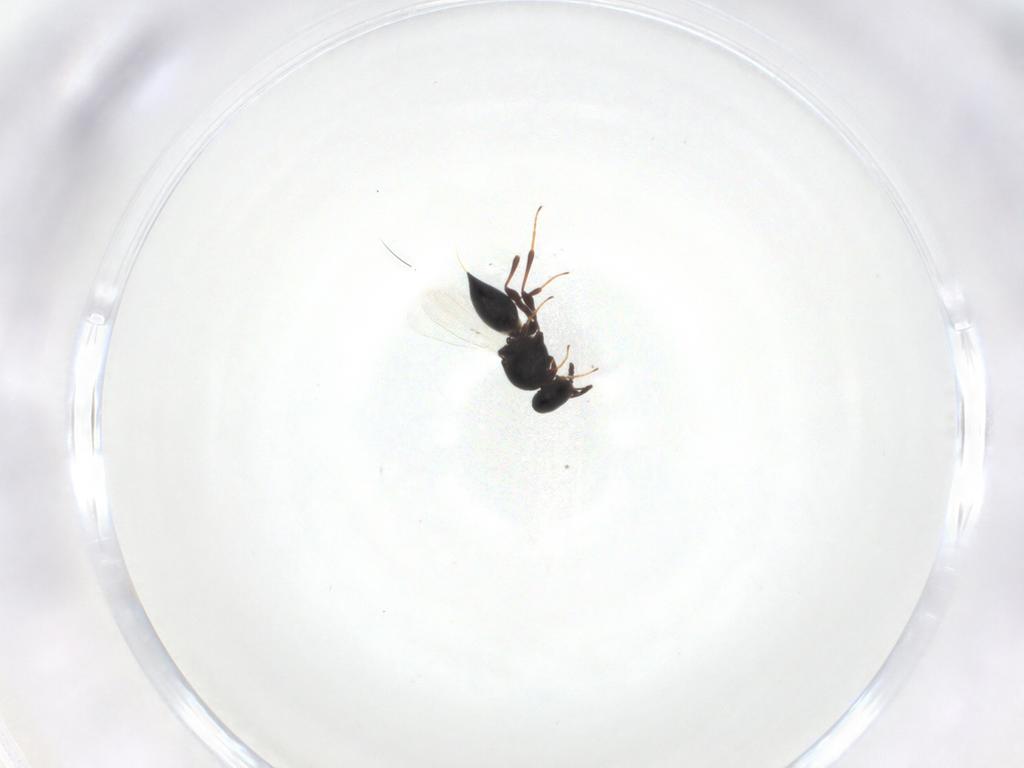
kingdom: Animalia
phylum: Arthropoda
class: Insecta
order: Hymenoptera
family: Platygastridae
